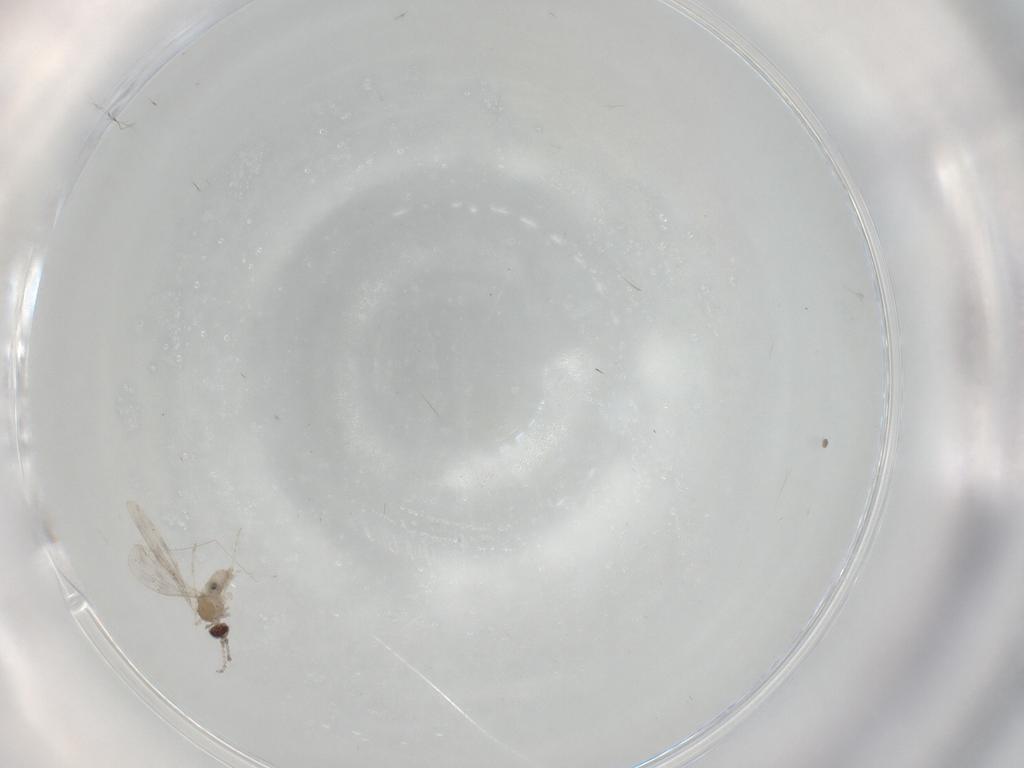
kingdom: Animalia
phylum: Arthropoda
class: Insecta
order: Diptera
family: Cecidomyiidae
